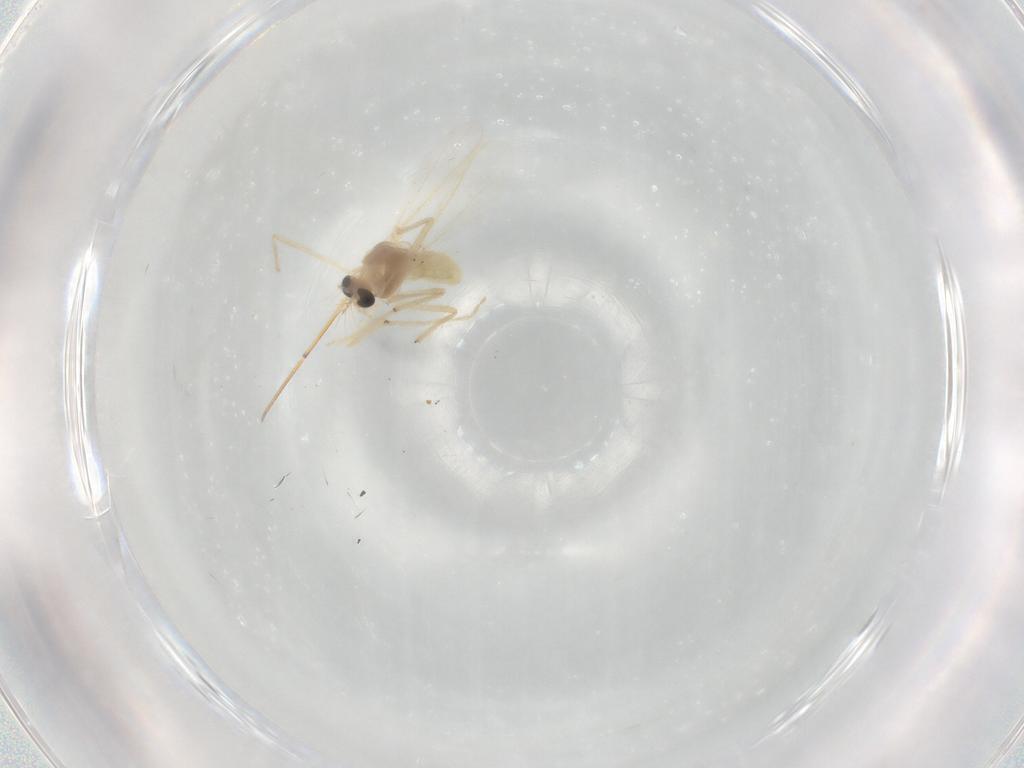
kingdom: Animalia
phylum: Arthropoda
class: Insecta
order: Diptera
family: Chironomidae
